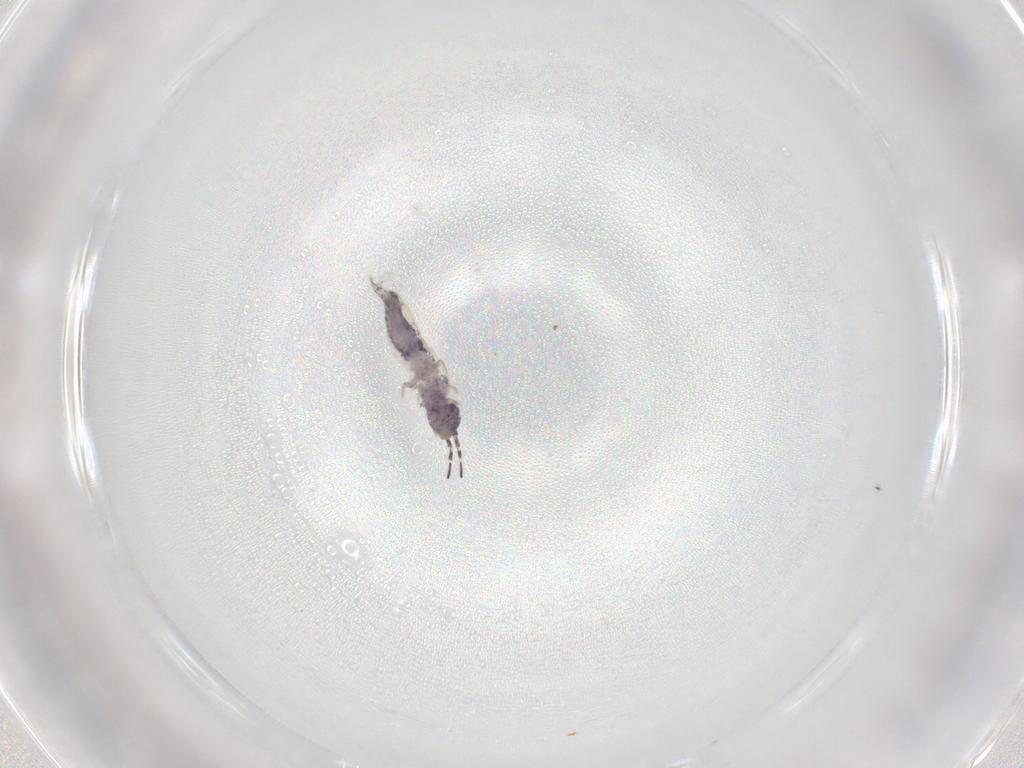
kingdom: Animalia
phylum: Arthropoda
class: Collembola
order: Entomobryomorpha
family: Isotomidae
